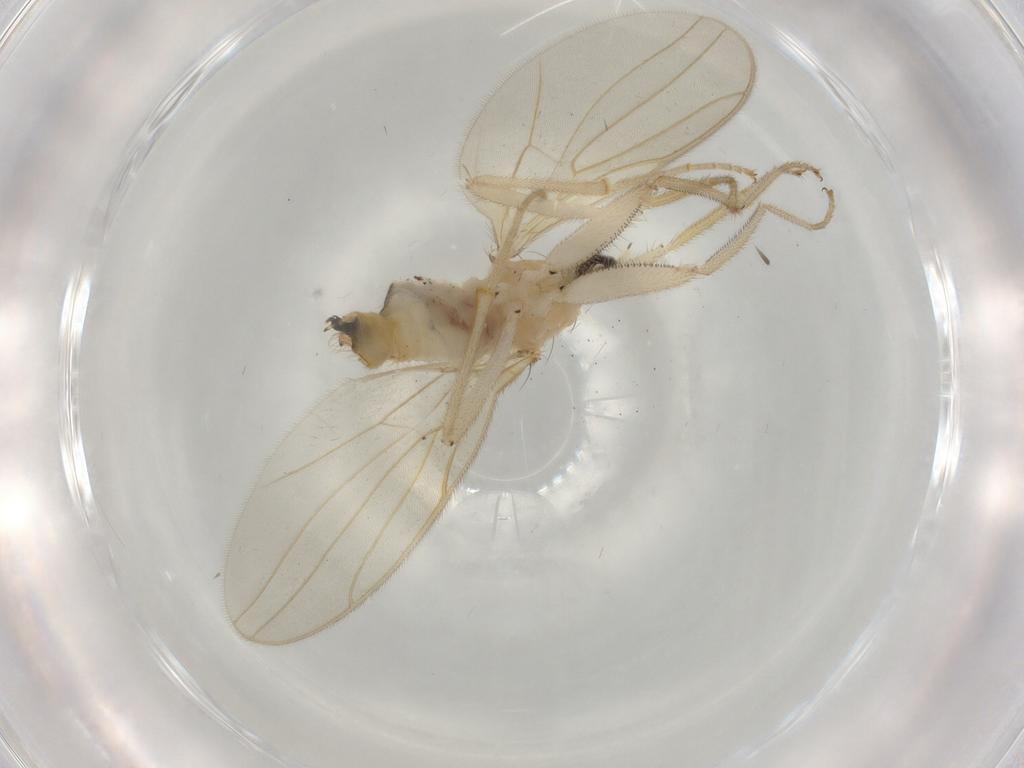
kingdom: Animalia
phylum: Arthropoda
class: Insecta
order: Diptera
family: Hybotidae
